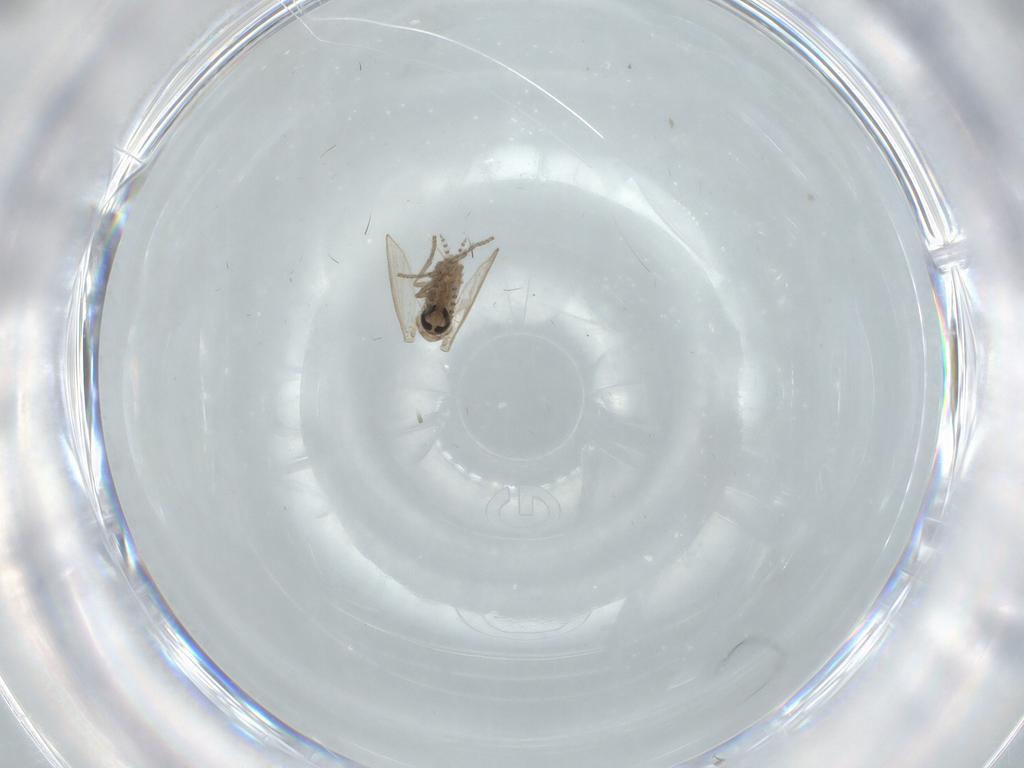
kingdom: Animalia
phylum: Arthropoda
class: Insecta
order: Diptera
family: Psychodidae
